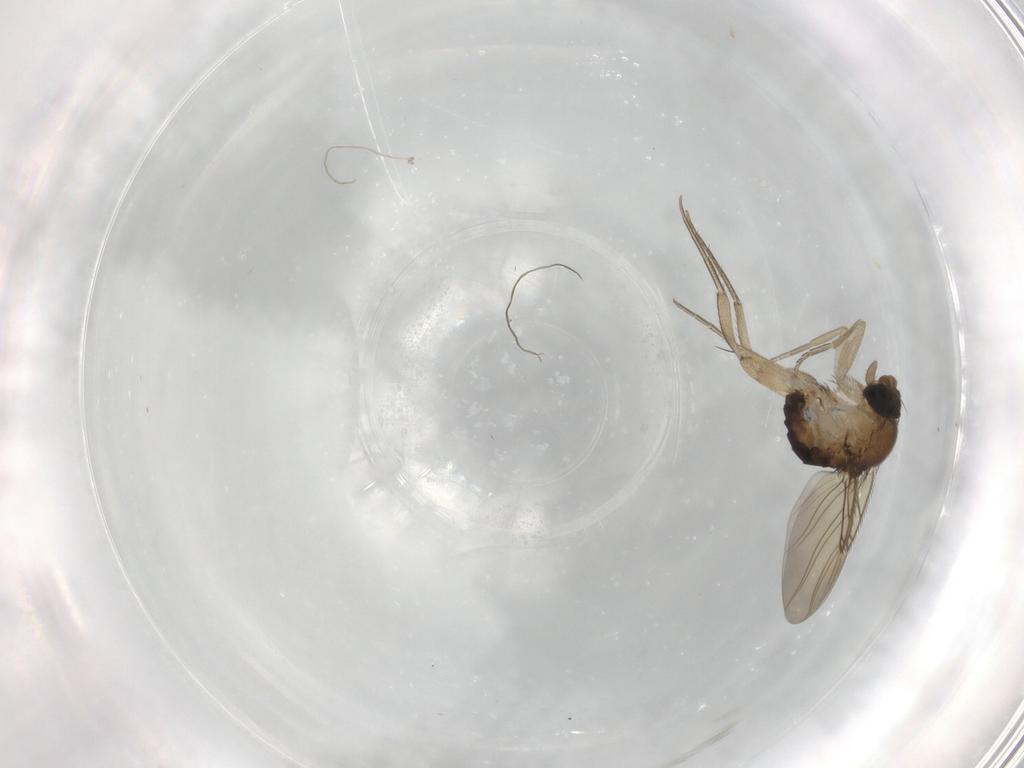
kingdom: Animalia
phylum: Arthropoda
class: Insecta
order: Diptera
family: Phoridae
